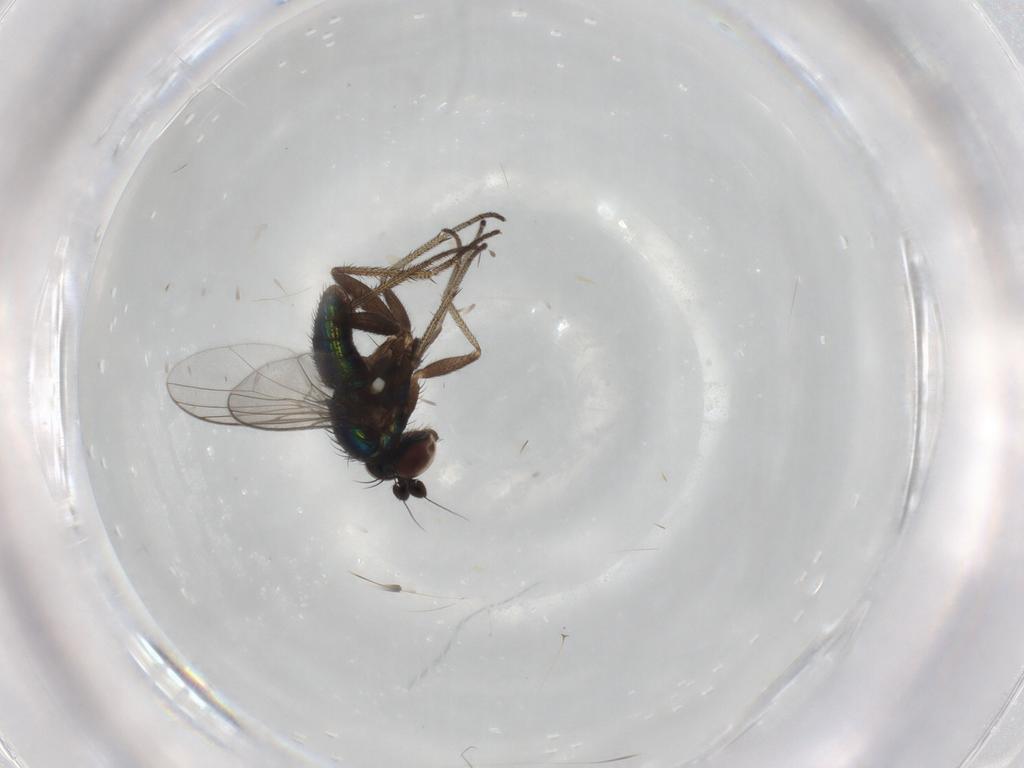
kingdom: Animalia
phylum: Arthropoda
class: Insecta
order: Diptera
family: Dolichopodidae
